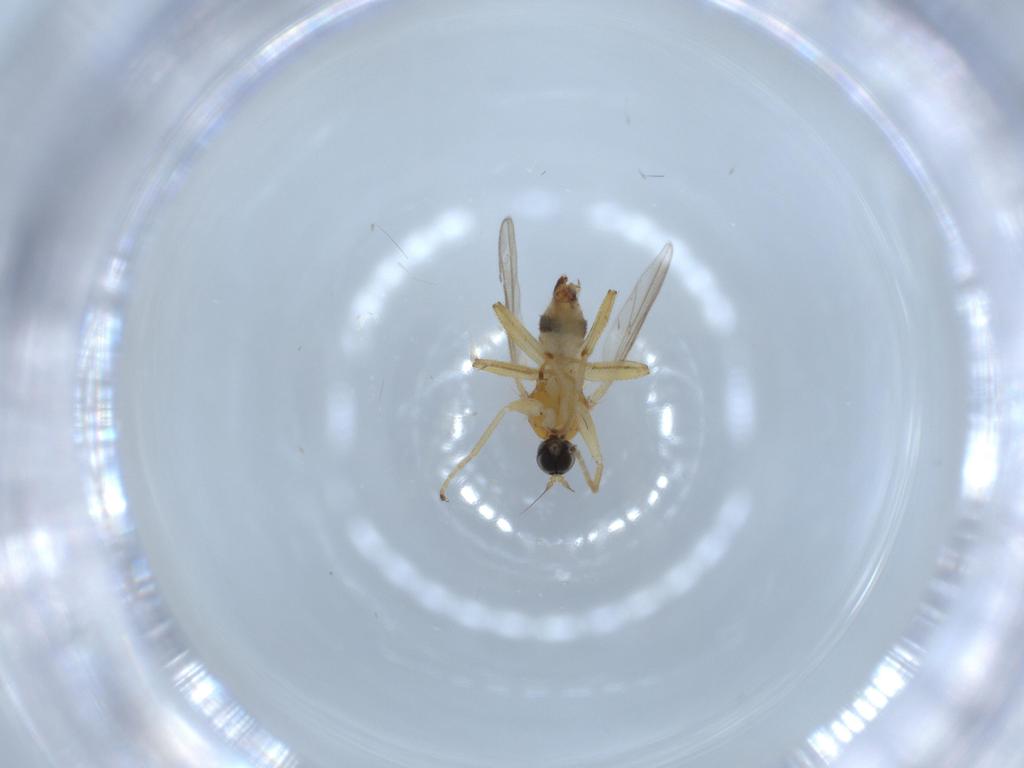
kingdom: Animalia
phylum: Arthropoda
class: Insecta
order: Diptera
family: Hybotidae
